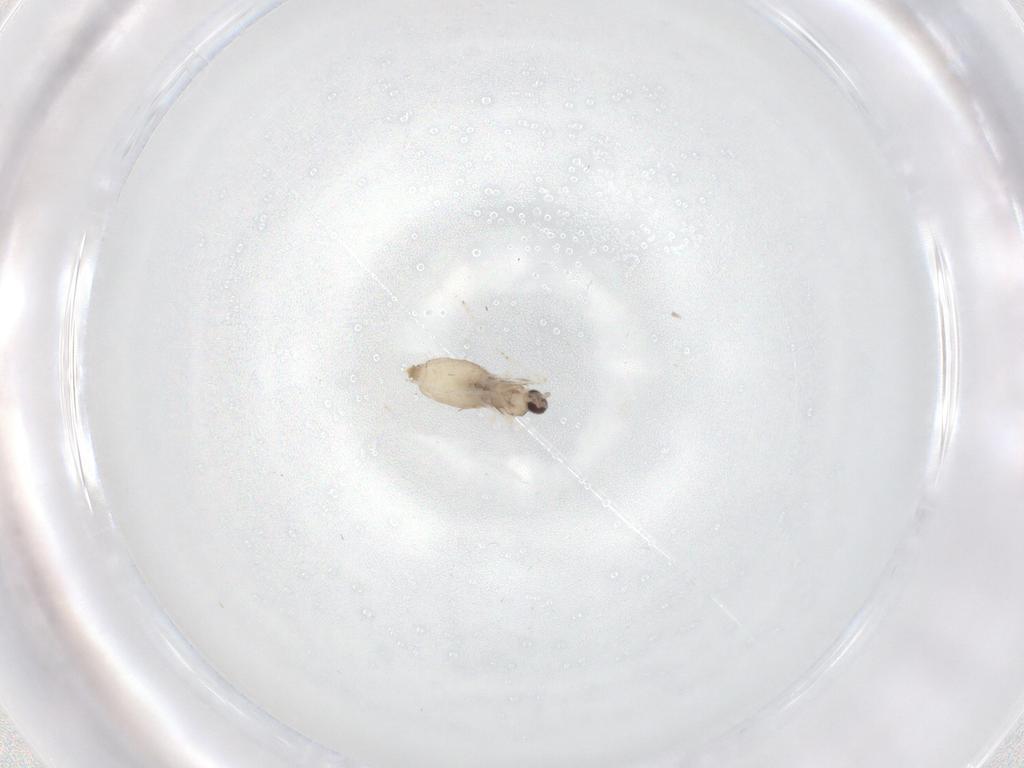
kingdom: Animalia
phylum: Arthropoda
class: Insecta
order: Diptera
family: Cecidomyiidae
